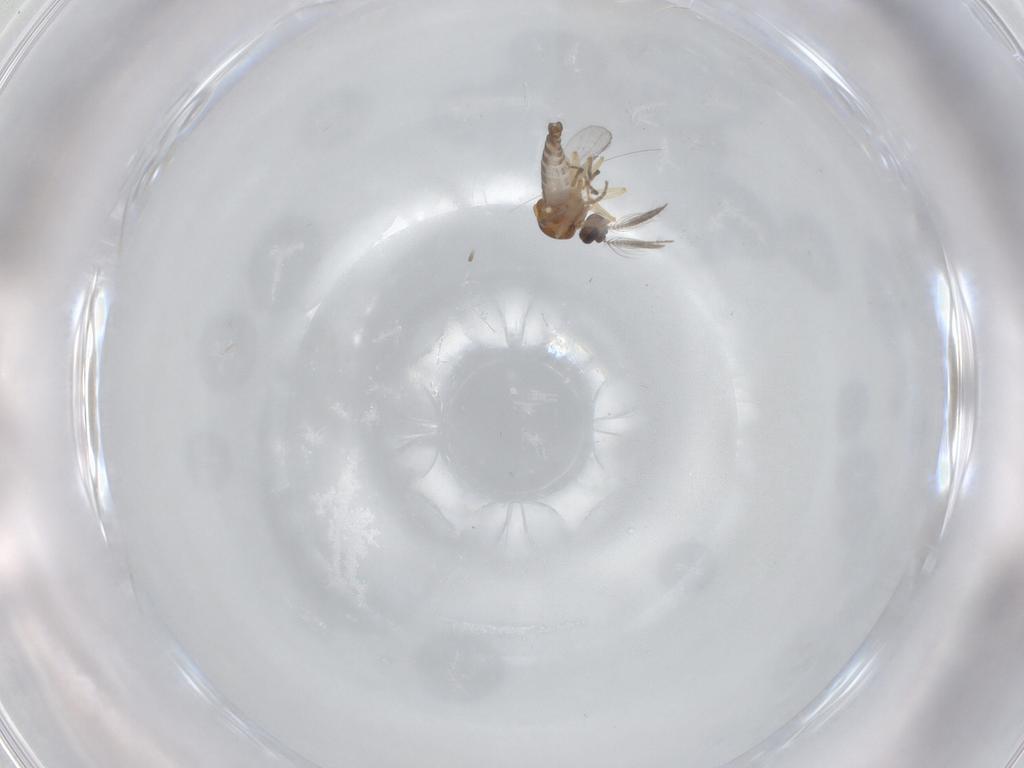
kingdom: Animalia
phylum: Arthropoda
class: Insecta
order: Diptera
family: Ceratopogonidae
